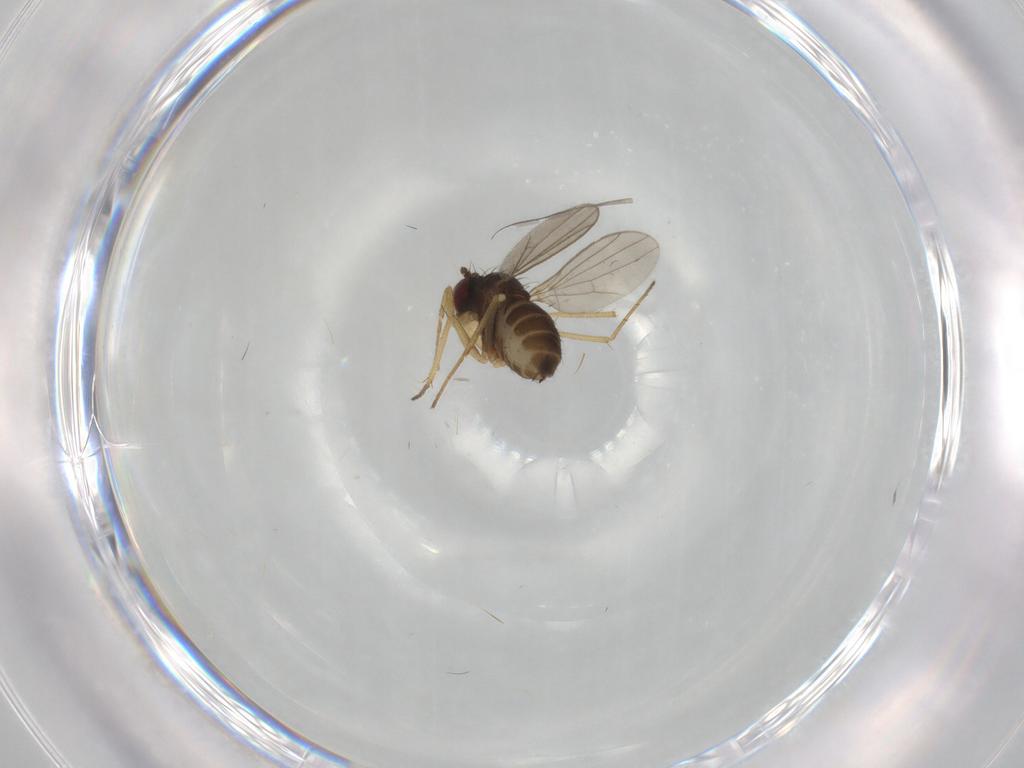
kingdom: Animalia
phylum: Arthropoda
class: Insecta
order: Diptera
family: Dolichopodidae
